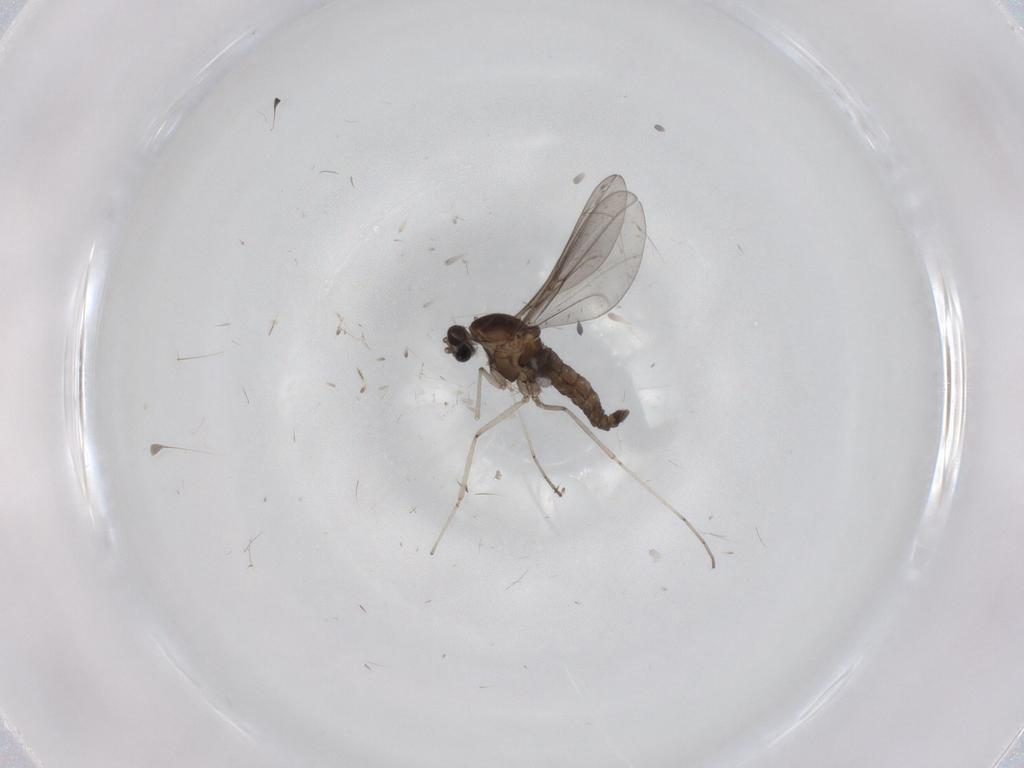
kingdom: Animalia
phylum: Arthropoda
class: Insecta
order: Diptera
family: Cecidomyiidae
